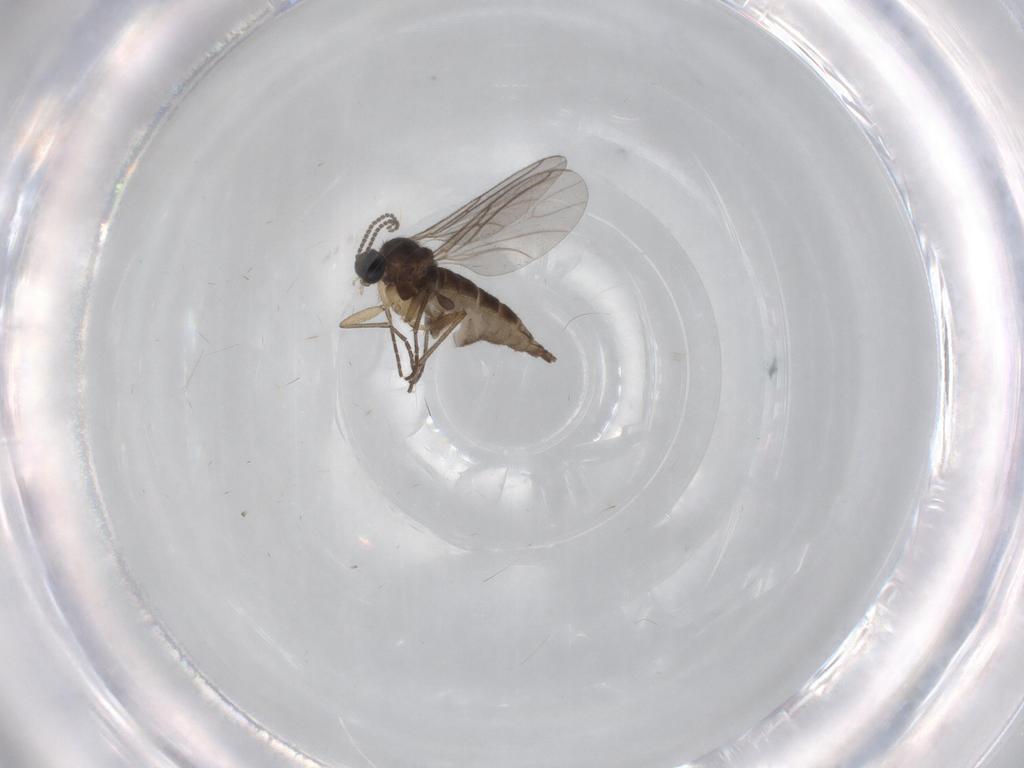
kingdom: Animalia
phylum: Arthropoda
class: Insecta
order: Diptera
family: Sciaridae
